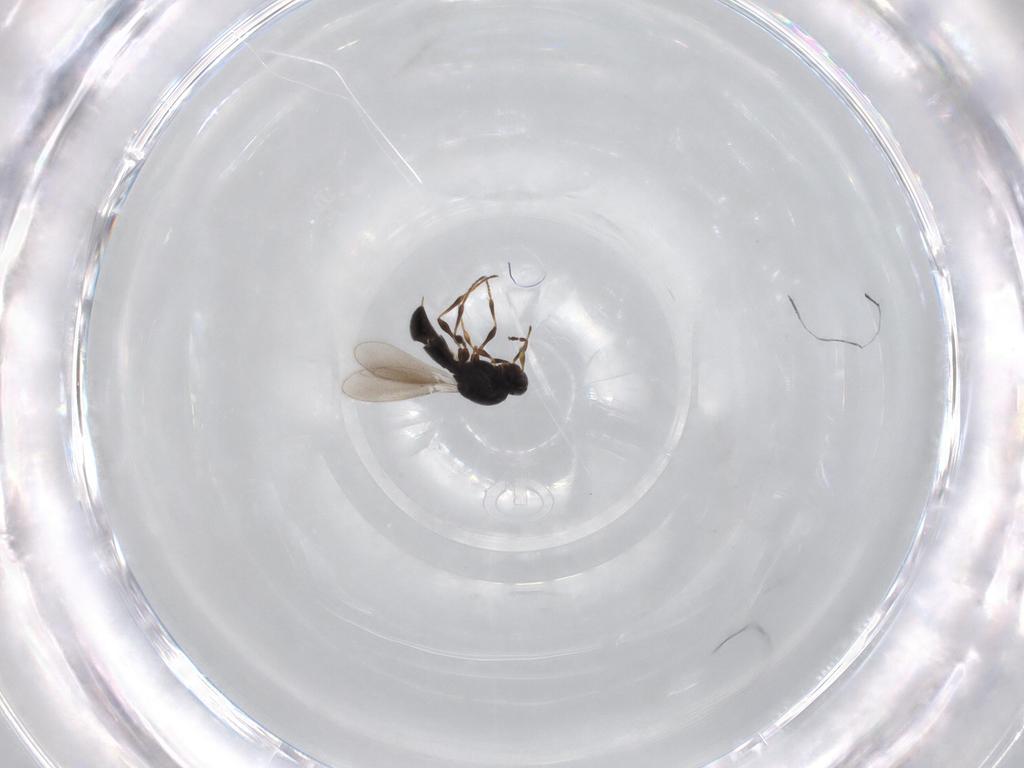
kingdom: Animalia
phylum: Arthropoda
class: Insecta
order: Hymenoptera
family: Platygastridae
